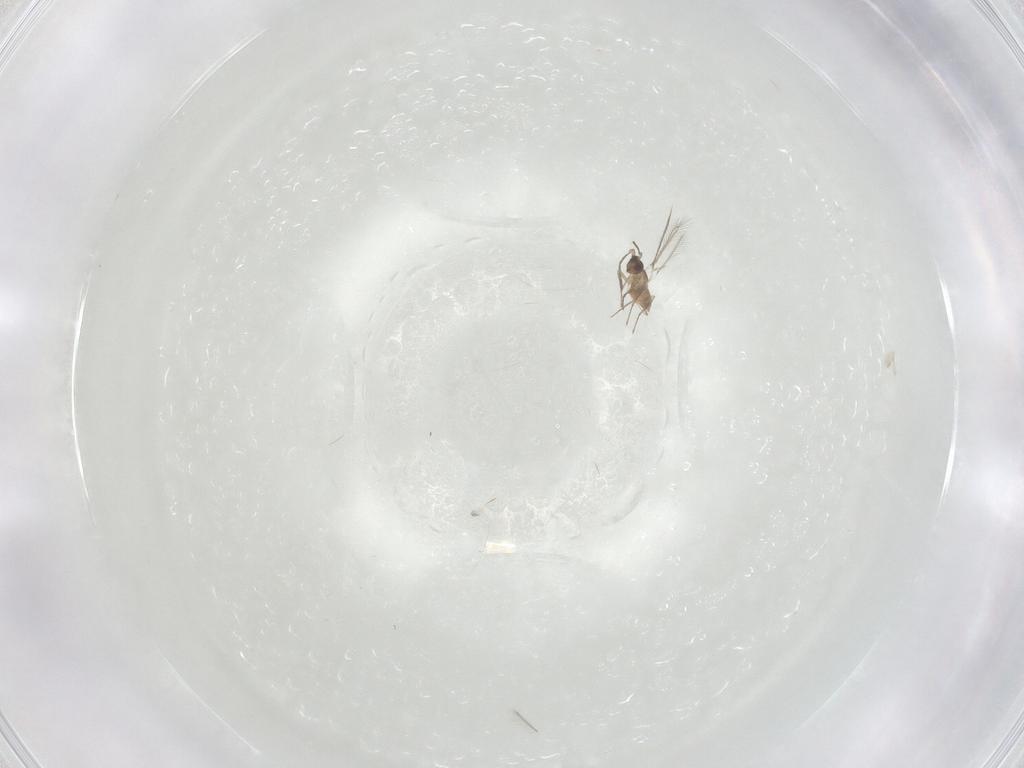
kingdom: Animalia
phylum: Arthropoda
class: Insecta
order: Hymenoptera
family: Mymaridae
